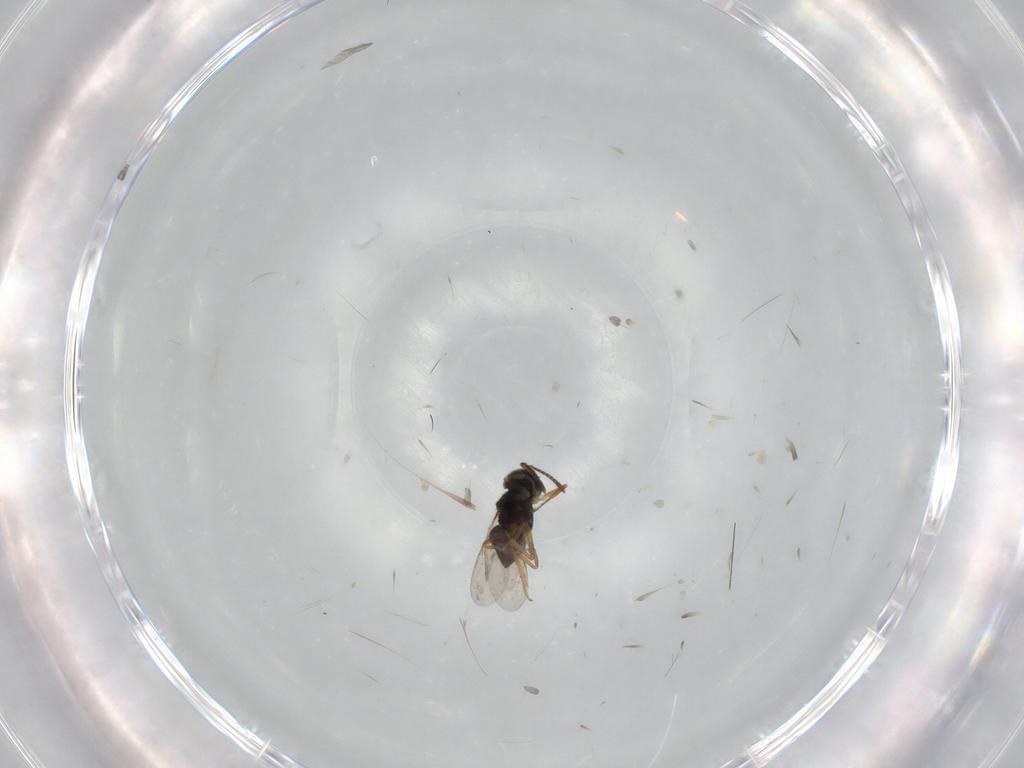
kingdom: Animalia
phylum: Arthropoda
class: Insecta
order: Hymenoptera
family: Encyrtidae
